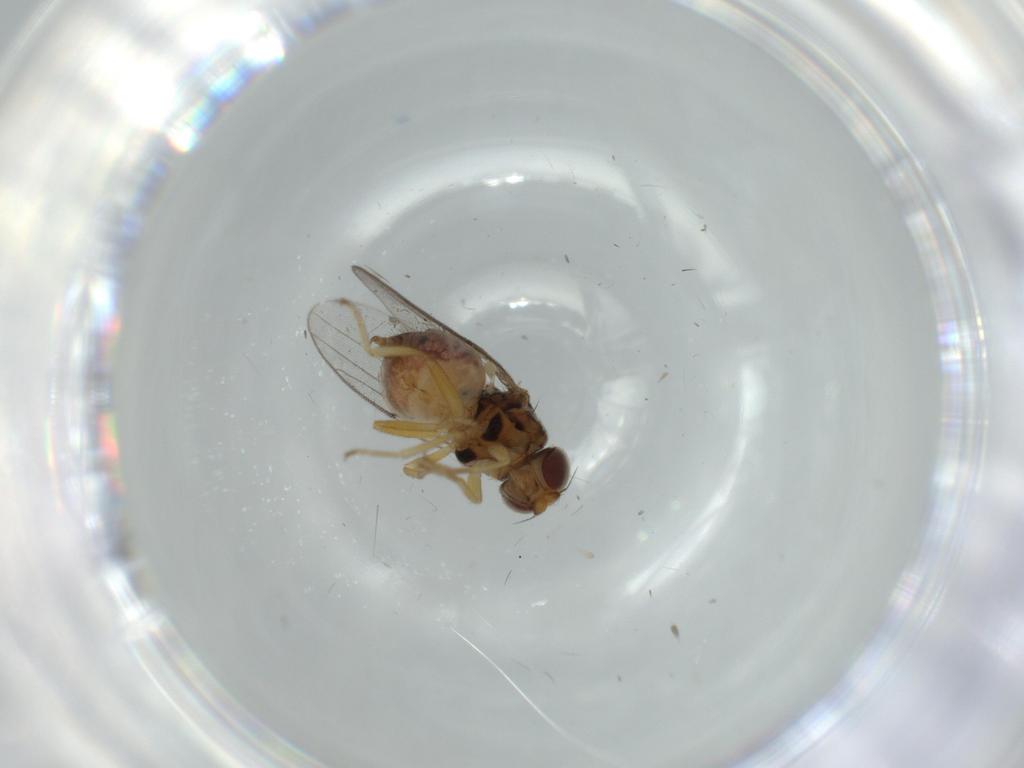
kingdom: Animalia
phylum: Arthropoda
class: Insecta
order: Diptera
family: Chloropidae
